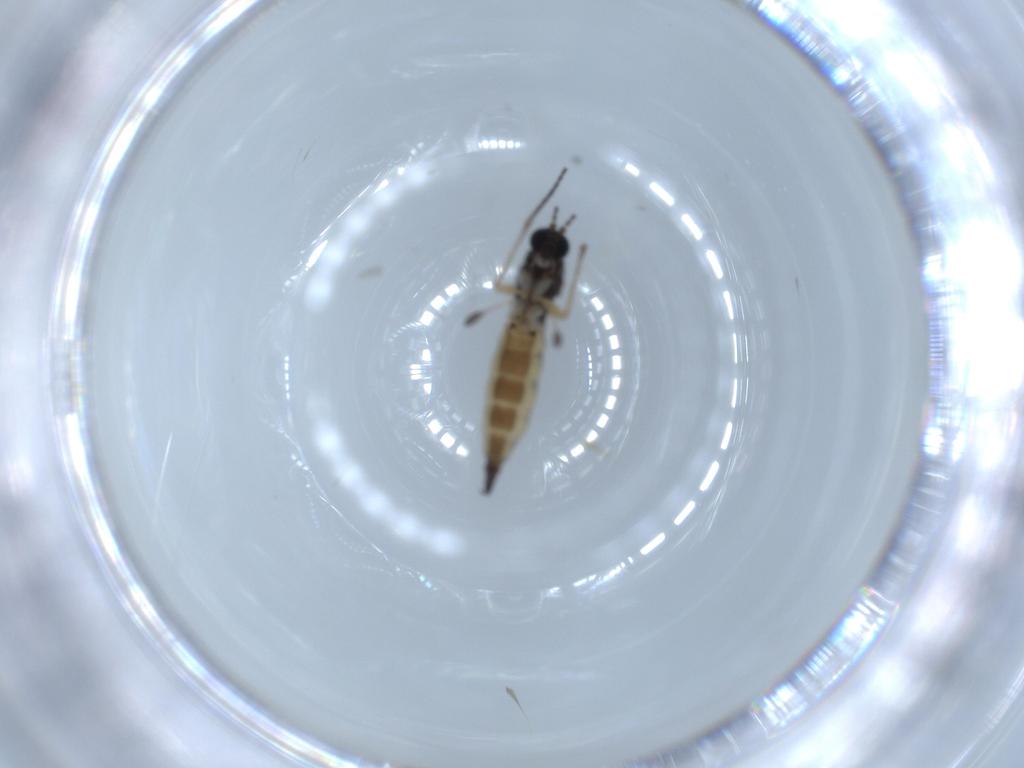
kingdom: Animalia
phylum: Arthropoda
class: Insecta
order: Diptera
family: Sciaridae
